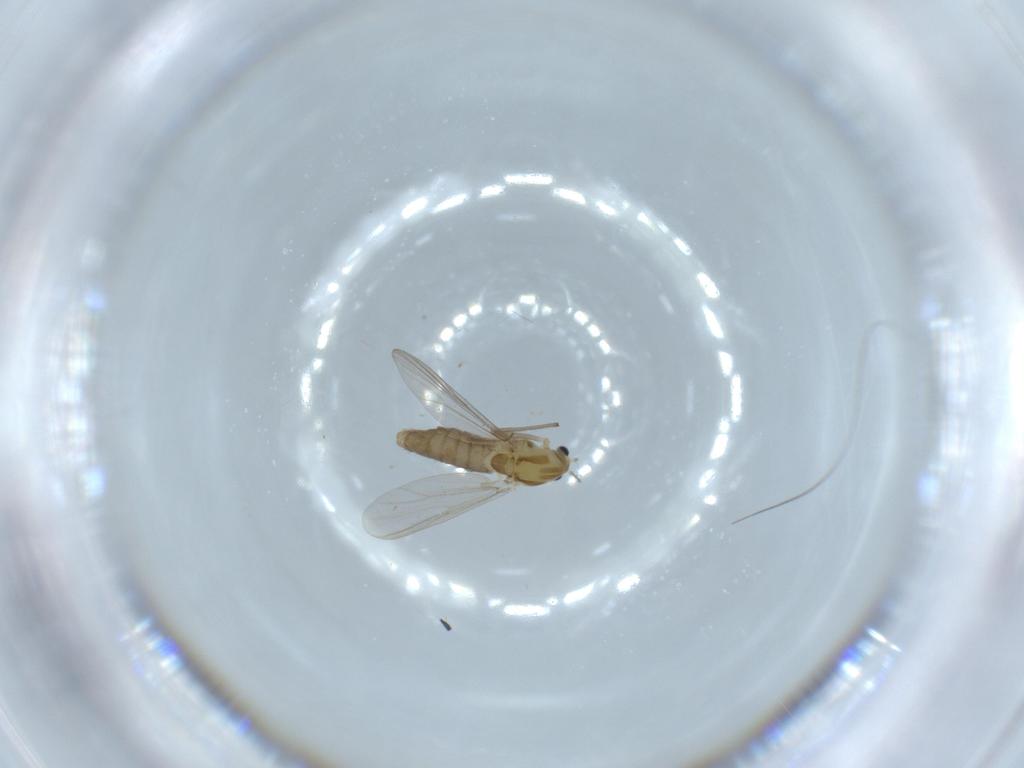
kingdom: Animalia
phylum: Arthropoda
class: Insecta
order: Diptera
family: Chironomidae
